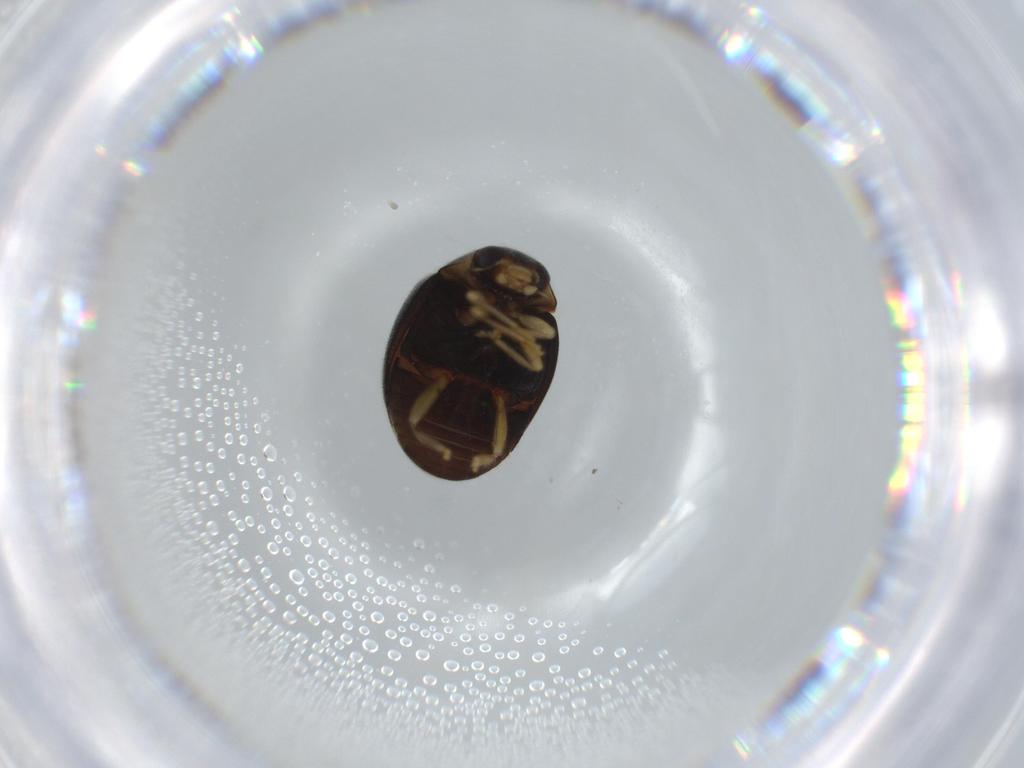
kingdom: Animalia
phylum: Arthropoda
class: Insecta
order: Coleoptera
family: Coccinellidae
